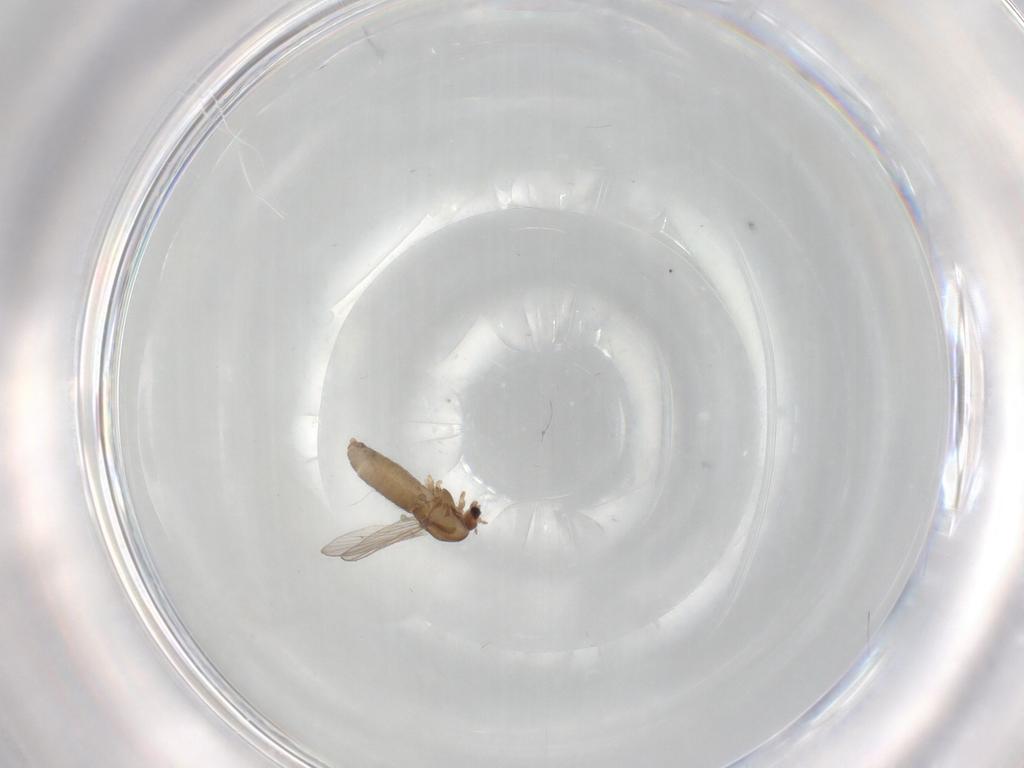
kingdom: Animalia
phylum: Arthropoda
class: Insecta
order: Diptera
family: Chironomidae
